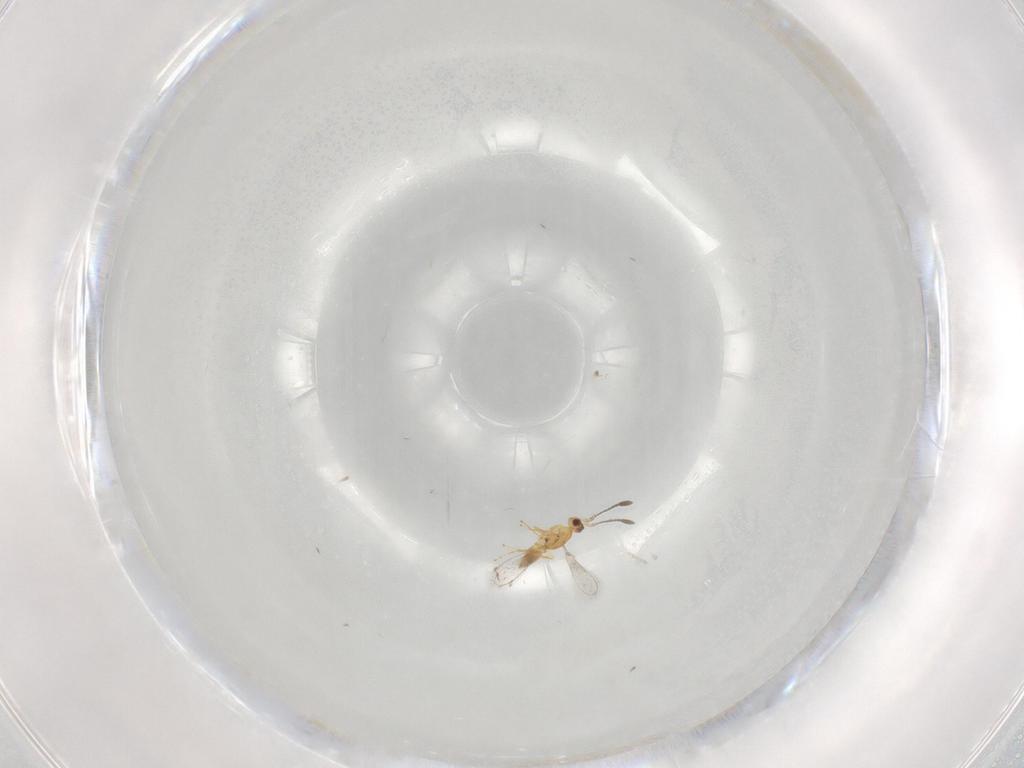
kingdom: Animalia
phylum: Arthropoda
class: Insecta
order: Hymenoptera
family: Mymaridae
